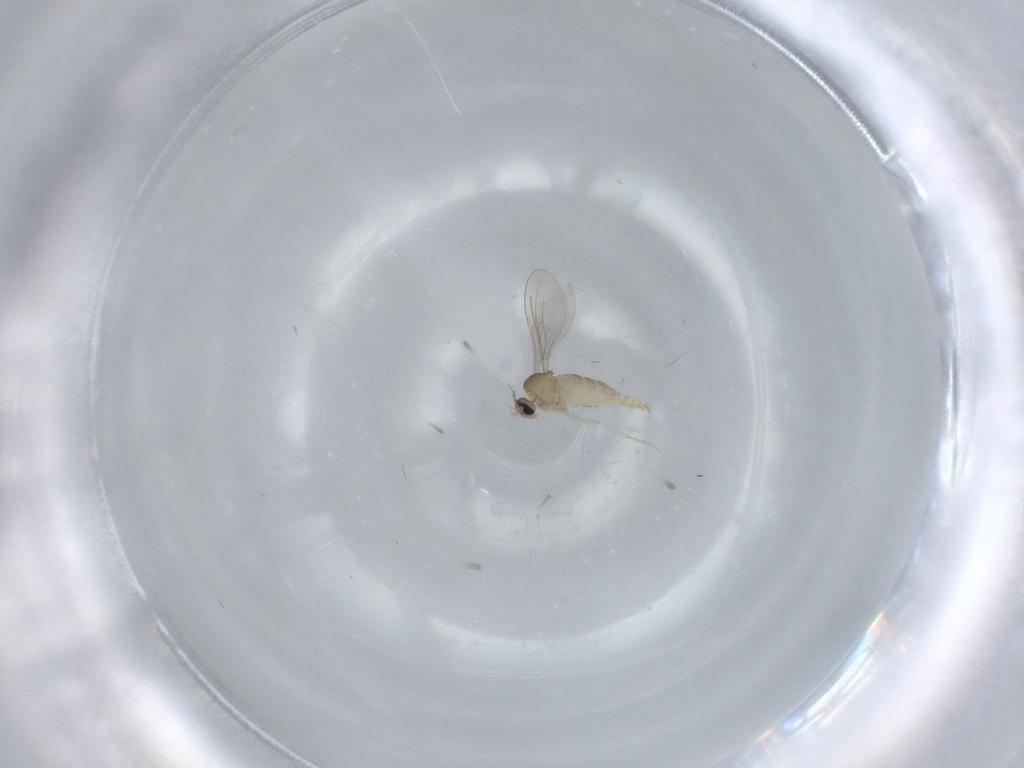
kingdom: Animalia
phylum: Arthropoda
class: Insecta
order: Diptera
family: Cecidomyiidae
